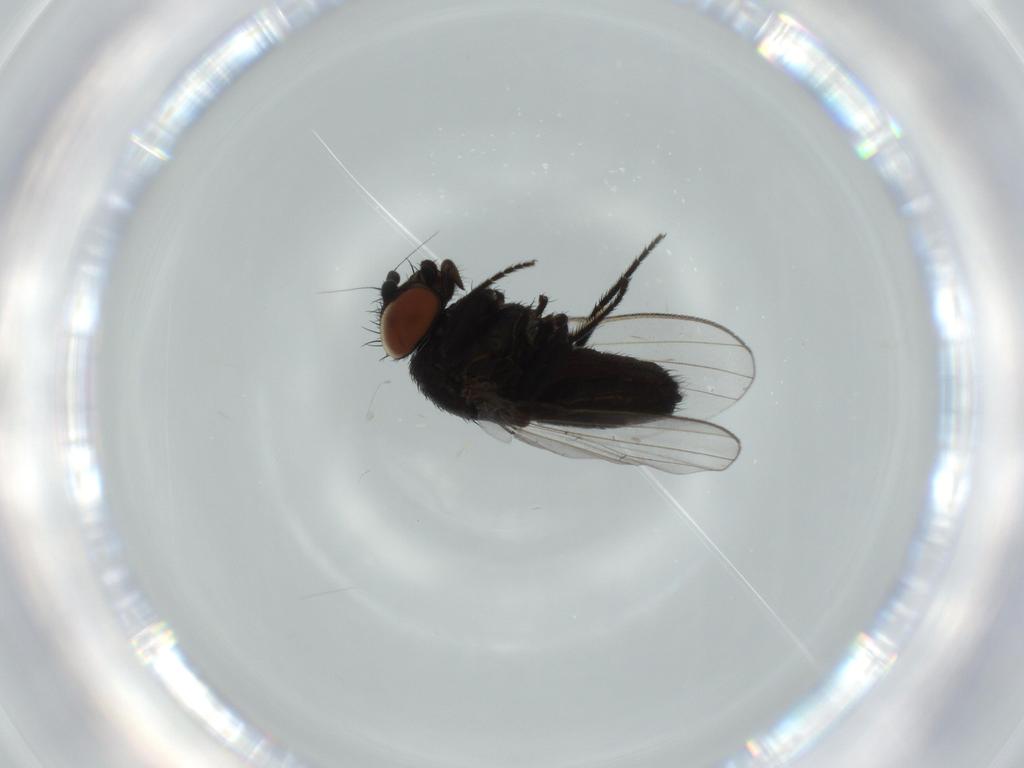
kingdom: Animalia
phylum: Arthropoda
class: Insecta
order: Diptera
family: Milichiidae
